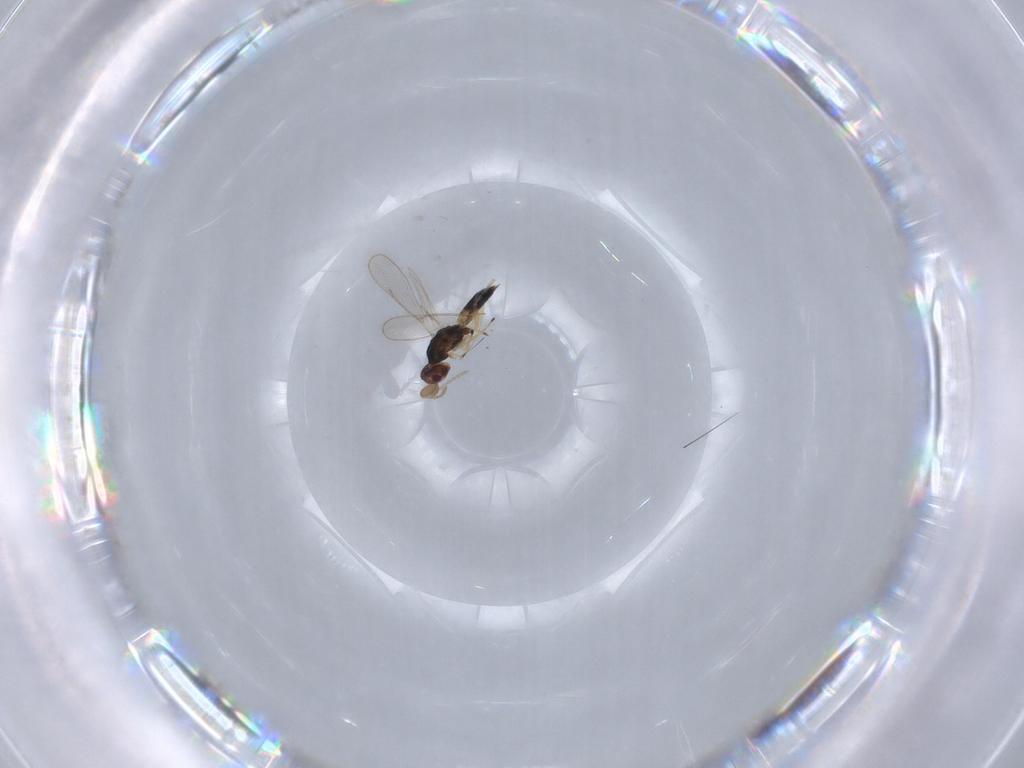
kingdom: Animalia
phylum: Arthropoda
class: Insecta
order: Hymenoptera
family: Eulophidae
